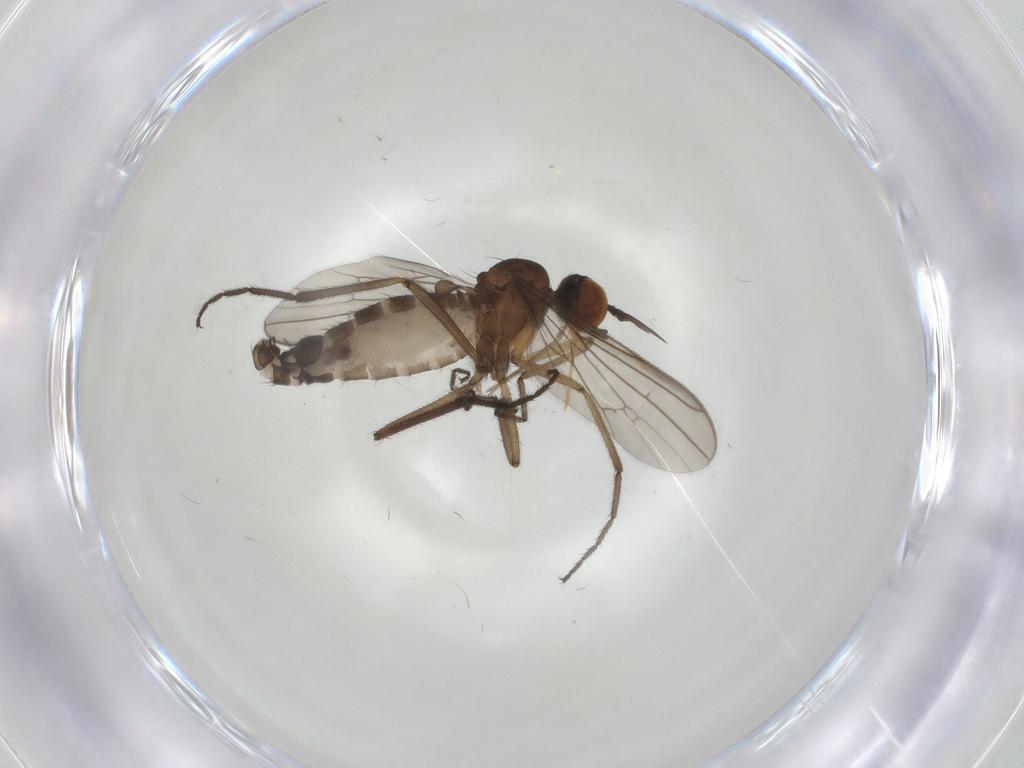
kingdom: Animalia
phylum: Arthropoda
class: Insecta
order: Diptera
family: Empididae
